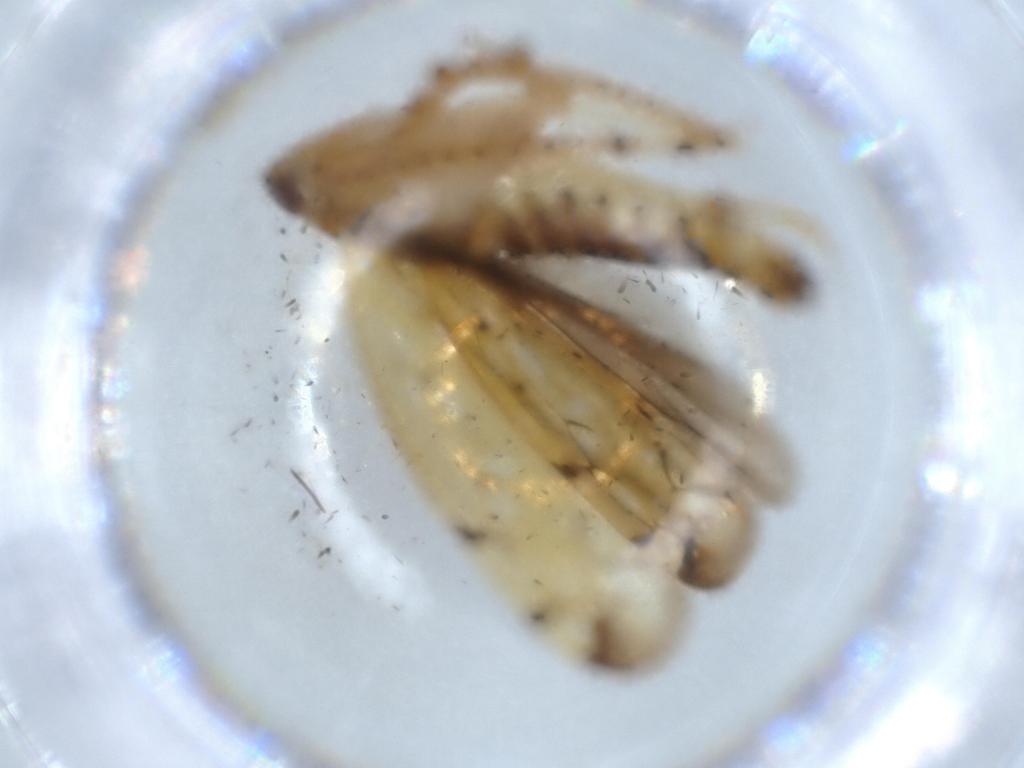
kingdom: Animalia
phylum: Arthropoda
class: Insecta
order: Hemiptera
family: Cicadellidae
